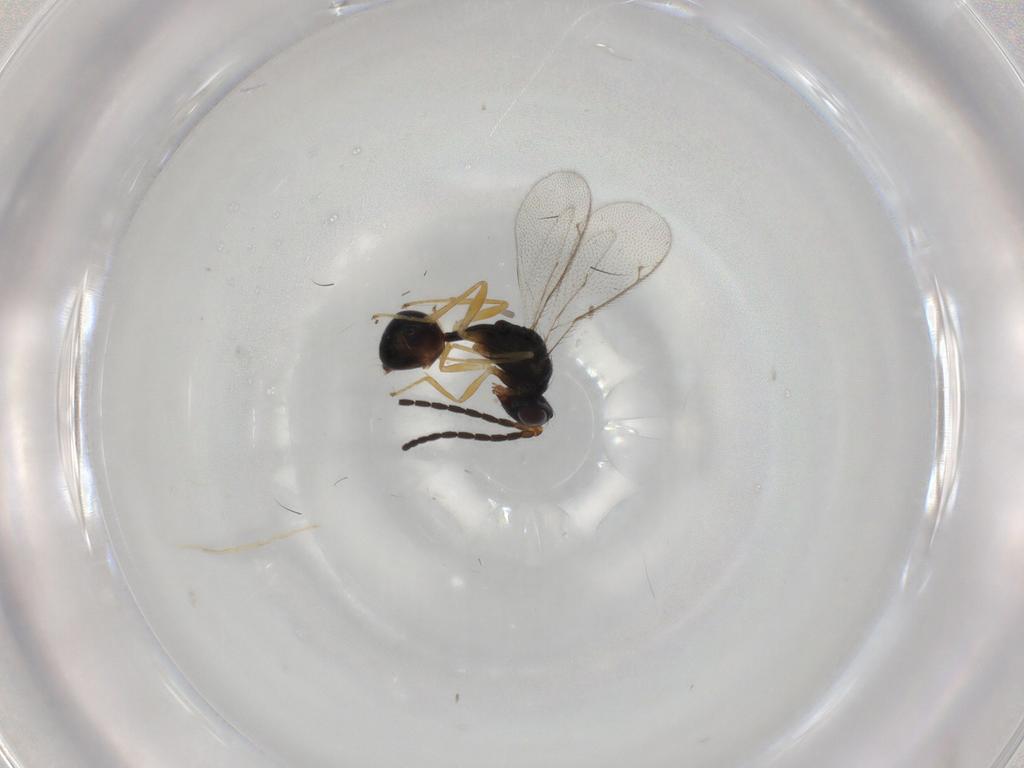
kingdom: Animalia
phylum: Arthropoda
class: Insecta
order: Hymenoptera
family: Diparidae
